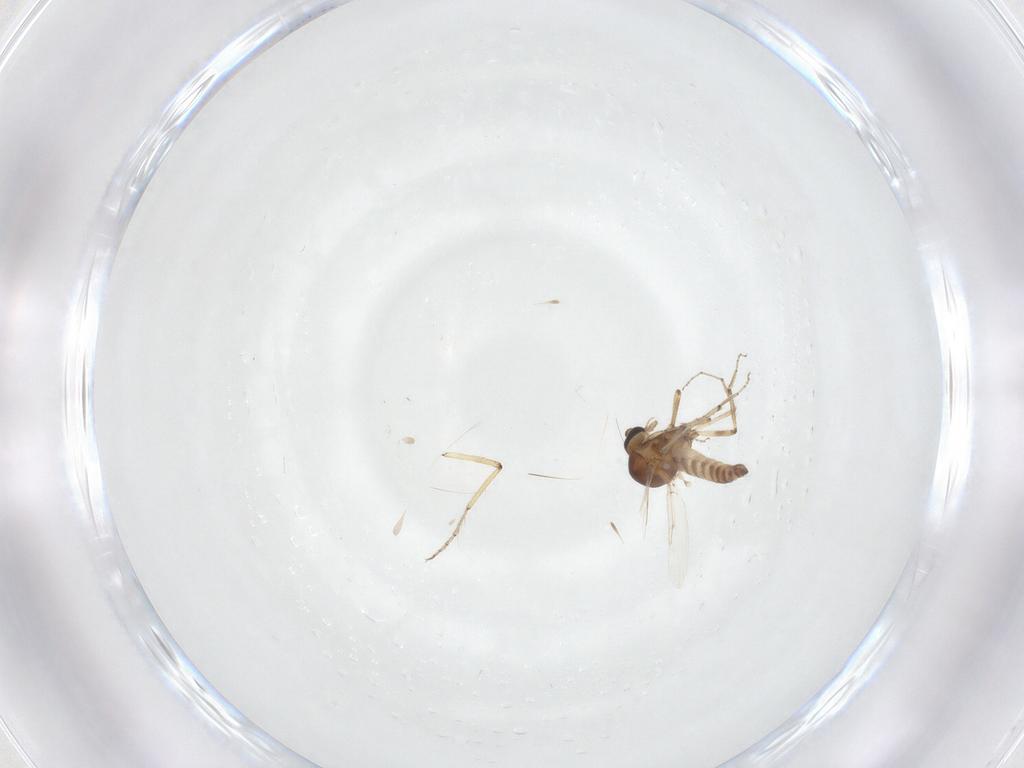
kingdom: Animalia
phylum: Arthropoda
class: Insecta
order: Diptera
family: Ceratopogonidae
